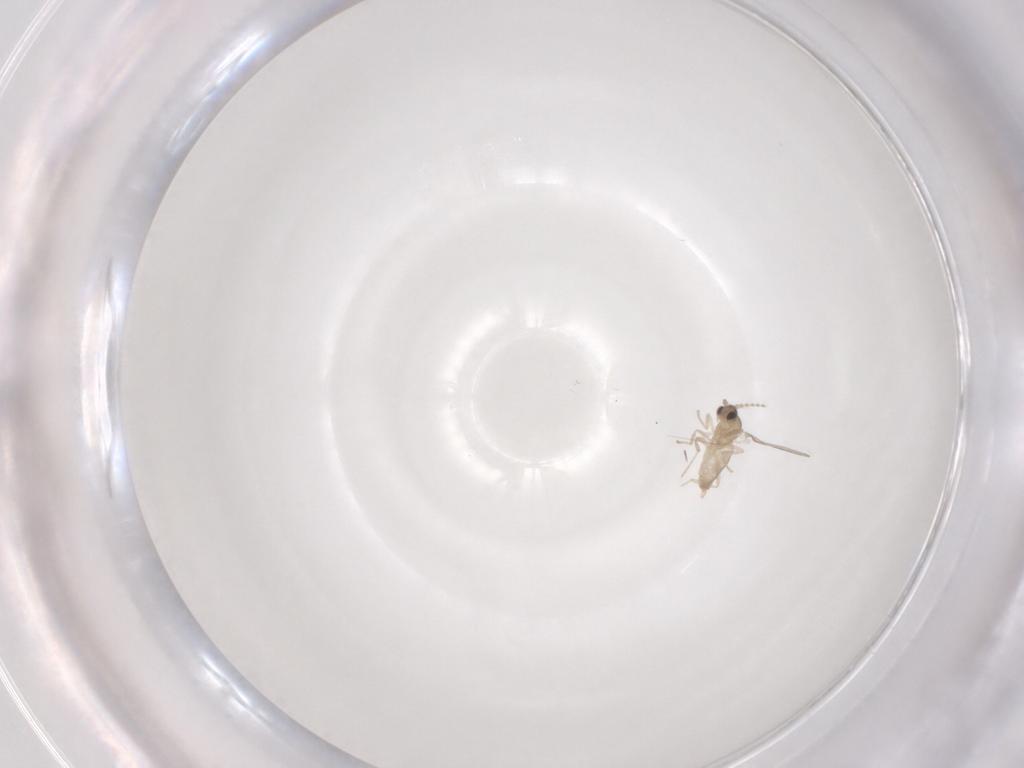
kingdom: Animalia
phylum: Arthropoda
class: Insecta
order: Diptera
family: Cecidomyiidae
